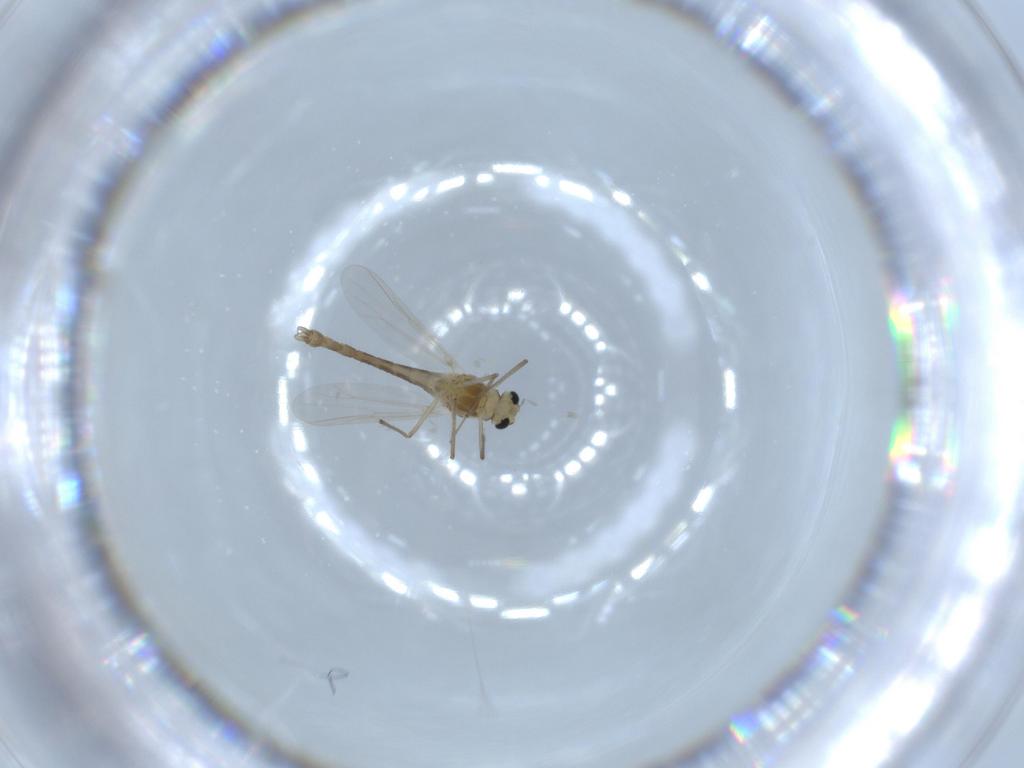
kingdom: Animalia
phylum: Arthropoda
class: Insecta
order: Diptera
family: Chironomidae
